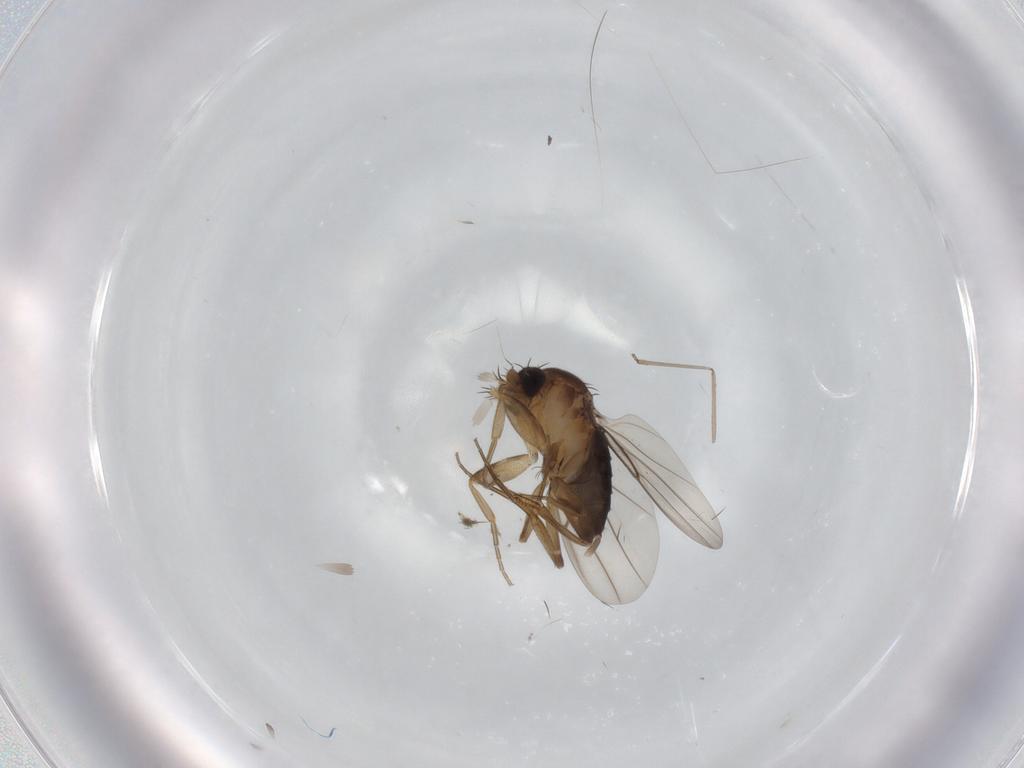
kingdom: Animalia
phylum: Arthropoda
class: Insecta
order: Diptera
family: Phoridae
